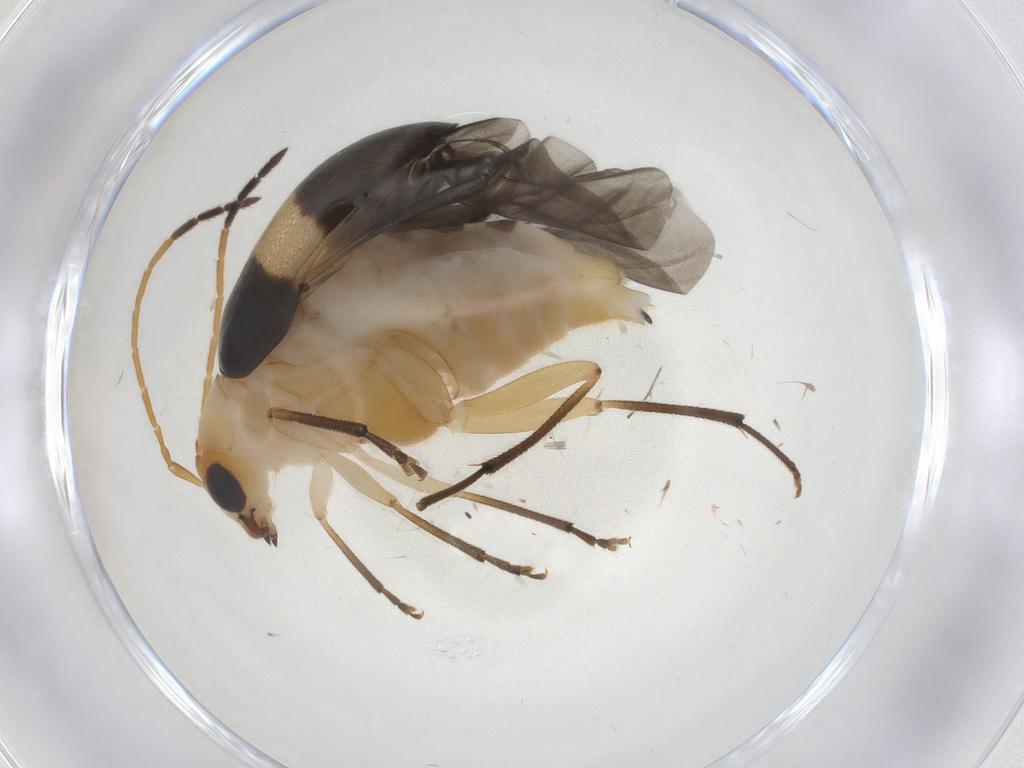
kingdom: Animalia
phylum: Arthropoda
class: Insecta
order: Coleoptera
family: Chrysomelidae
